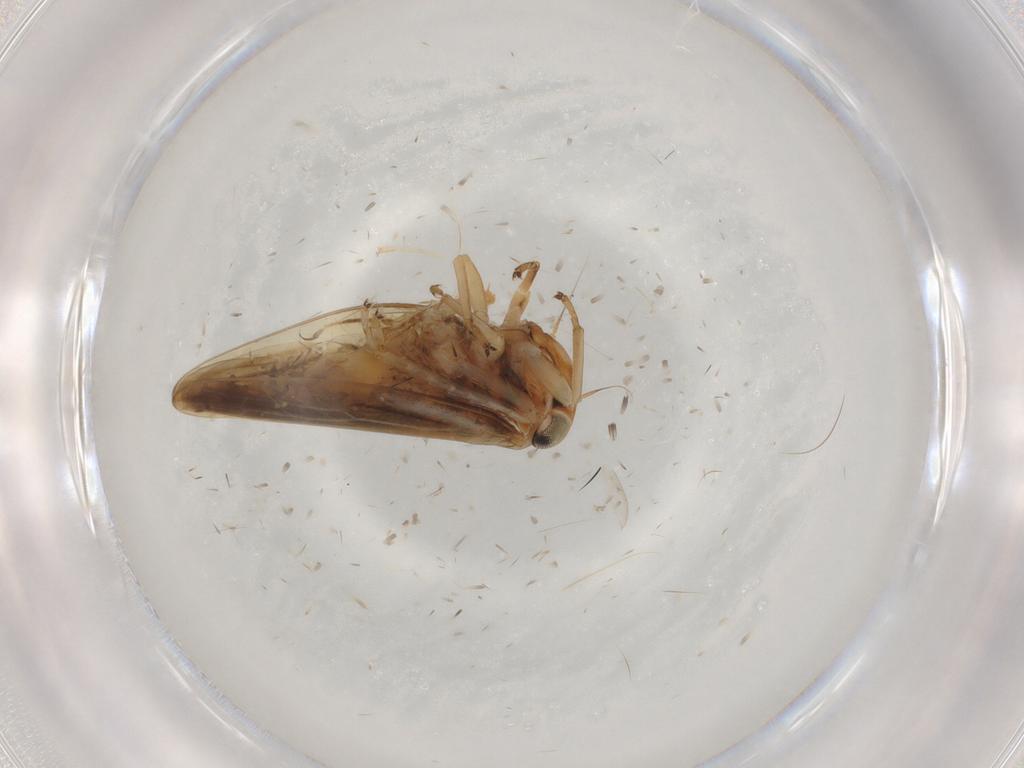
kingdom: Animalia
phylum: Arthropoda
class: Insecta
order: Hemiptera
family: Cicadellidae
